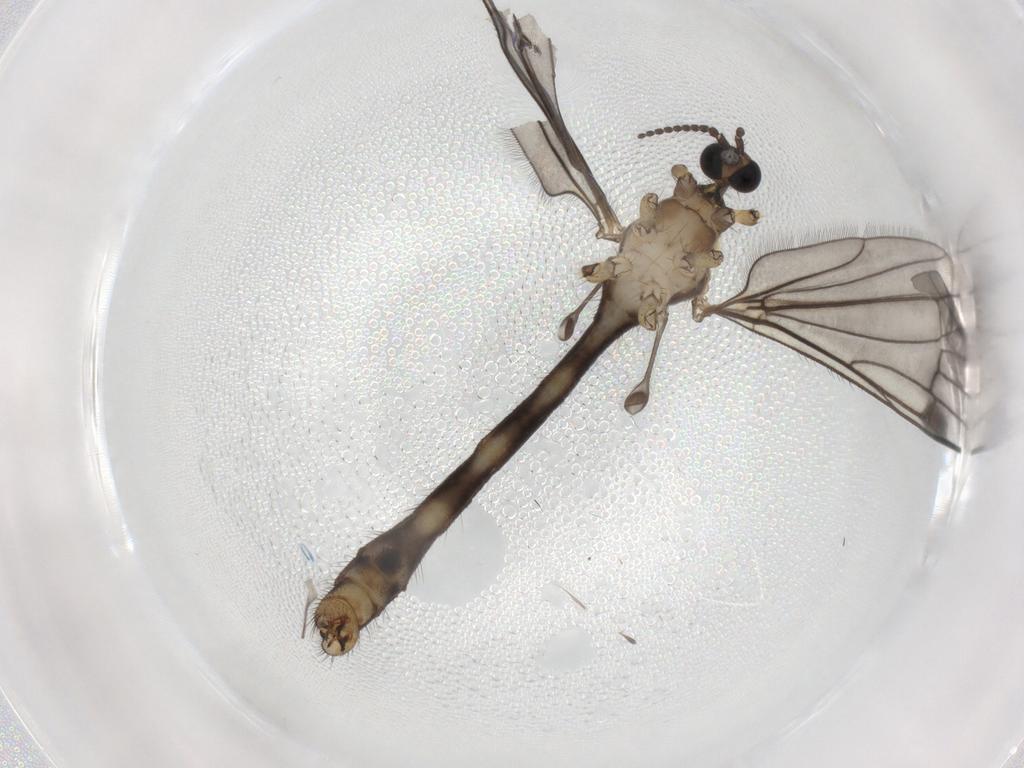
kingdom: Animalia
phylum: Arthropoda
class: Insecta
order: Diptera
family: Limoniidae
